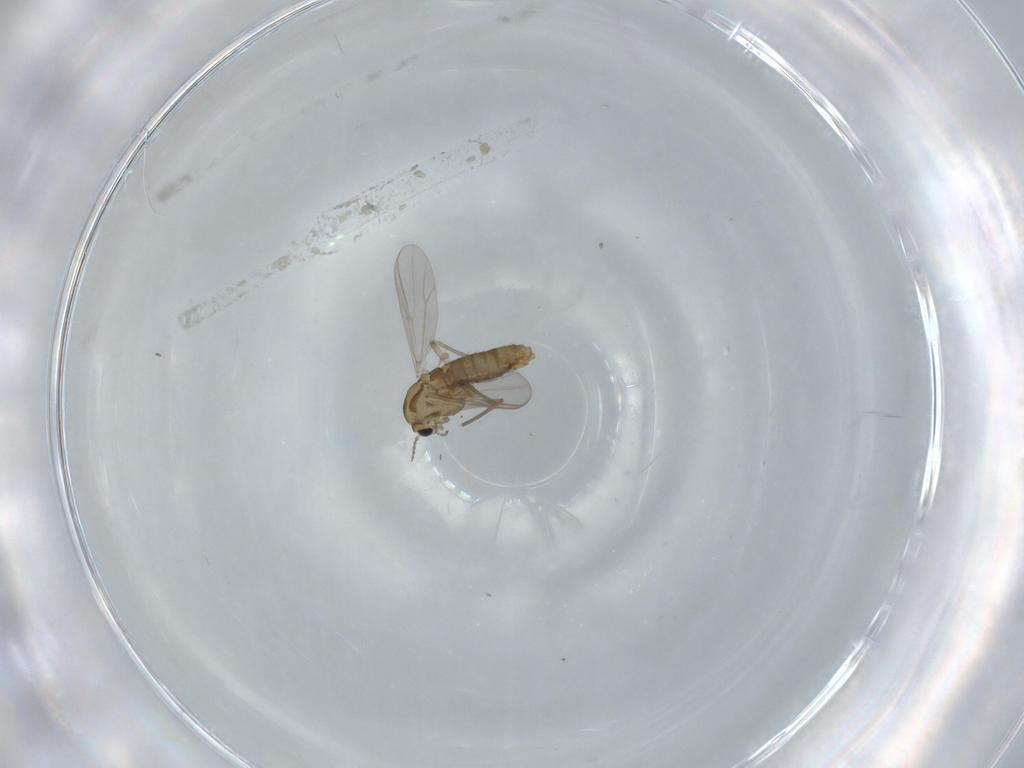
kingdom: Animalia
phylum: Arthropoda
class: Insecta
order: Diptera
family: Chironomidae
